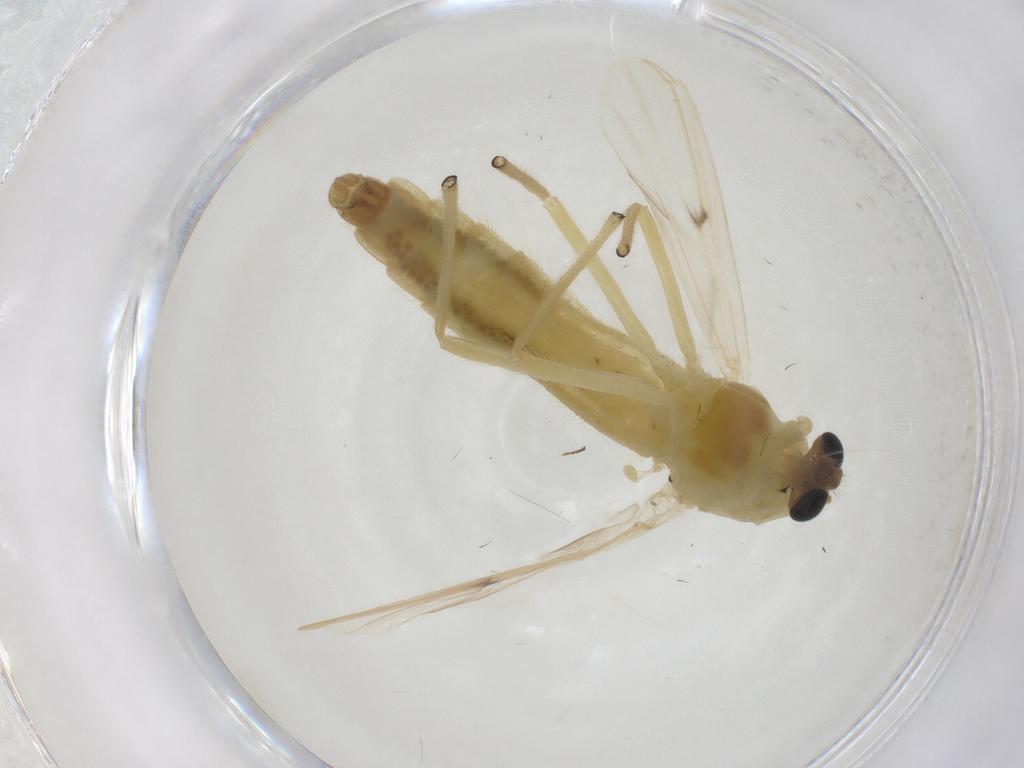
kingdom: Animalia
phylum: Arthropoda
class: Insecta
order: Diptera
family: Chironomidae
